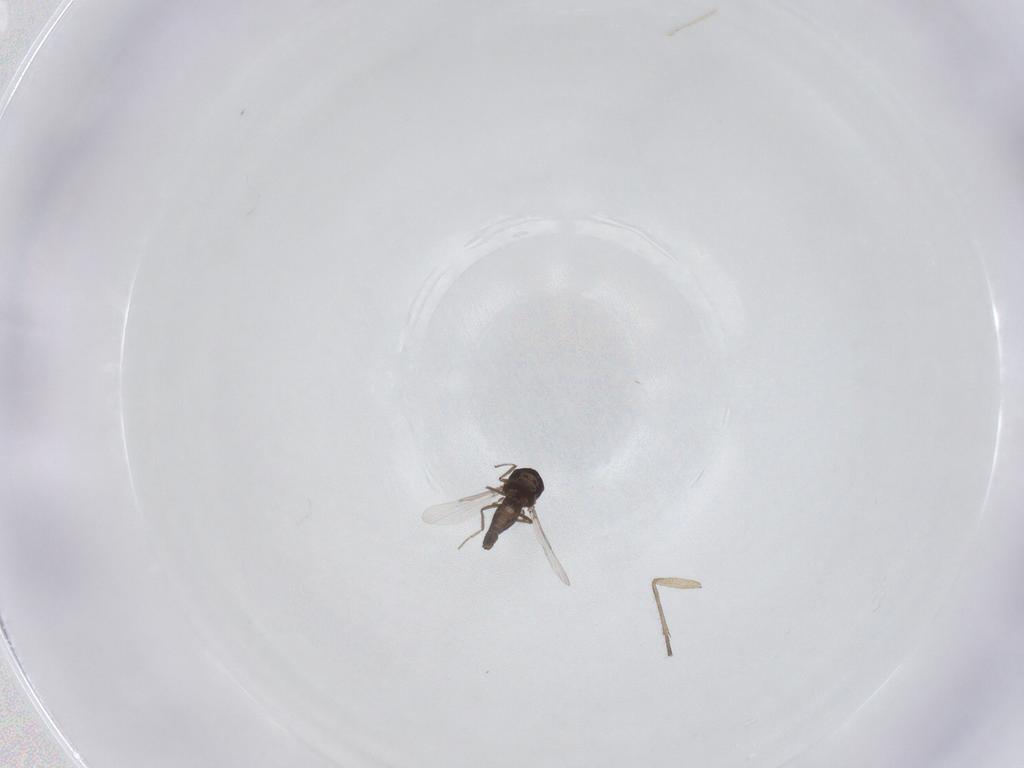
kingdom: Animalia
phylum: Arthropoda
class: Insecta
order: Diptera
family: Ceratopogonidae
